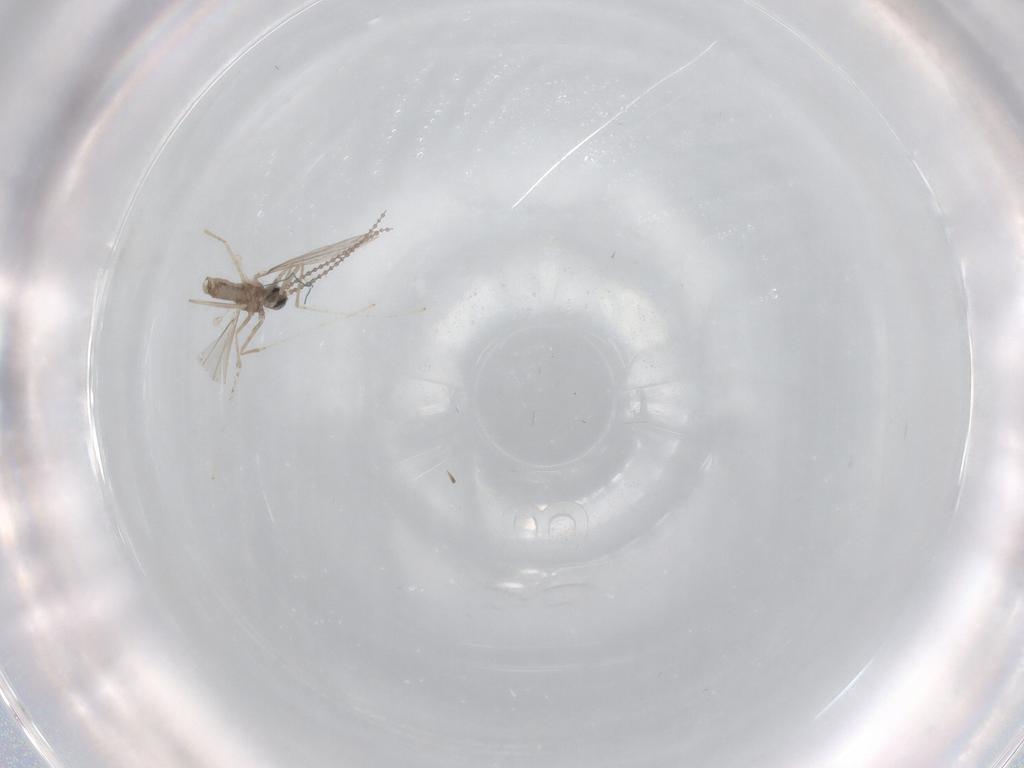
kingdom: Animalia
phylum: Arthropoda
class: Insecta
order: Diptera
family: Cecidomyiidae
